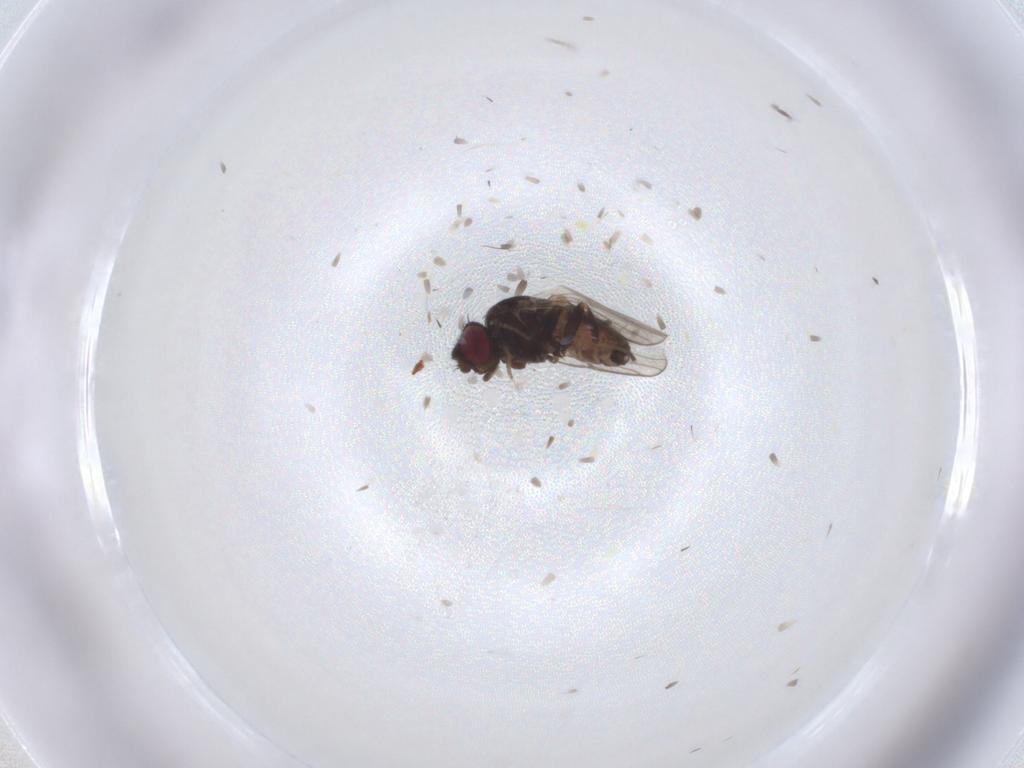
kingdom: Animalia
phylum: Arthropoda
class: Insecta
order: Diptera
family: Chloropidae
